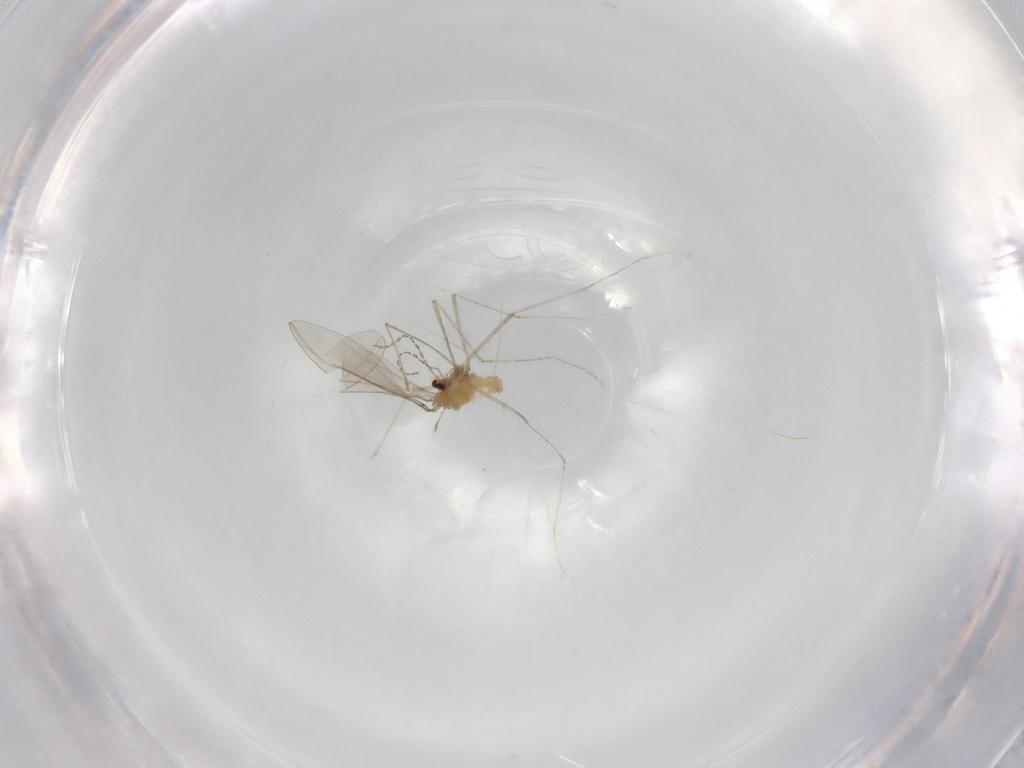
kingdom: Animalia
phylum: Arthropoda
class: Insecta
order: Diptera
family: Cecidomyiidae
